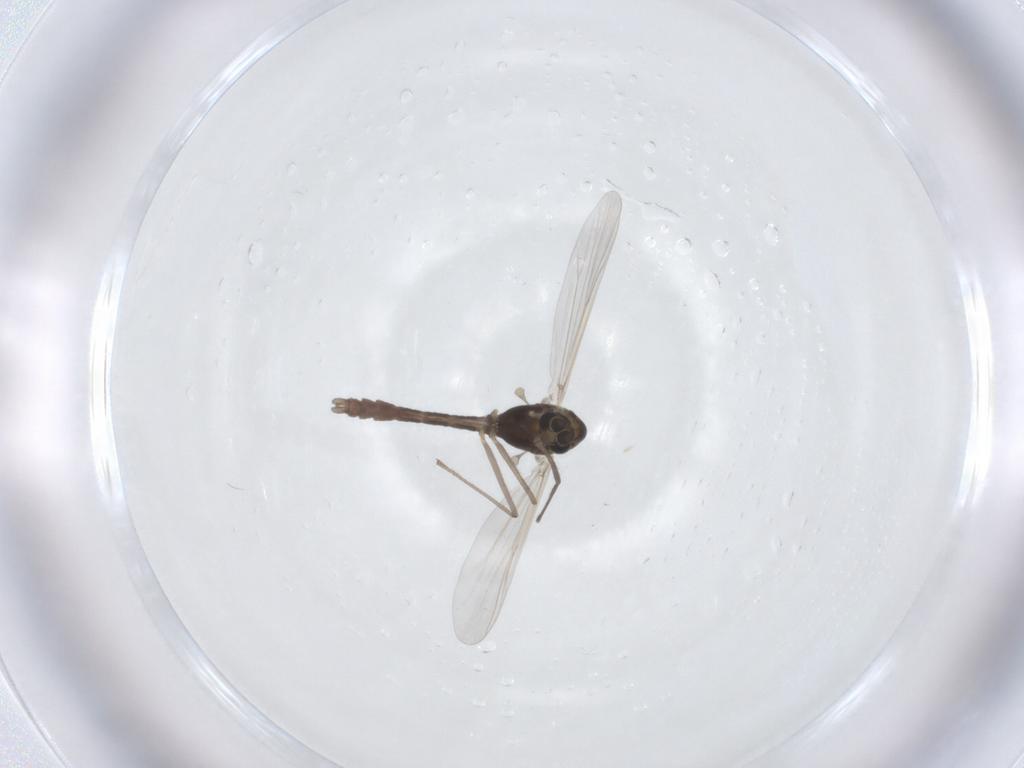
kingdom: Animalia
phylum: Arthropoda
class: Insecta
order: Diptera
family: Chironomidae
